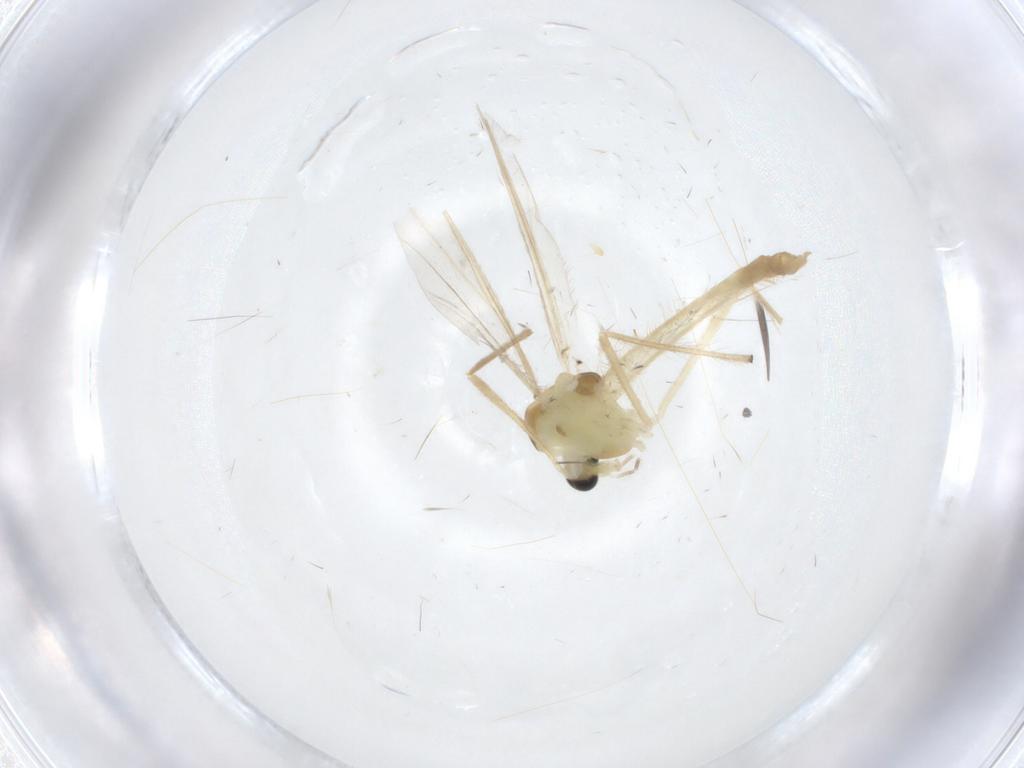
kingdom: Animalia
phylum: Arthropoda
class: Insecta
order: Diptera
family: Chironomidae
